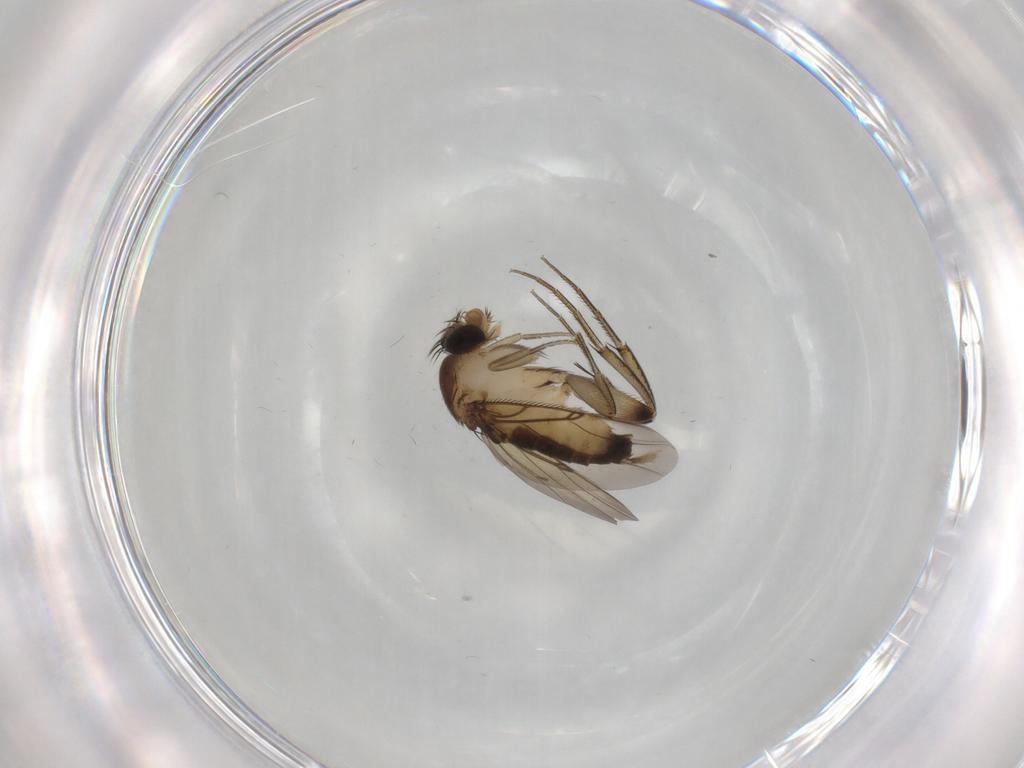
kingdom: Animalia
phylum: Arthropoda
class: Insecta
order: Diptera
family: Phoridae
